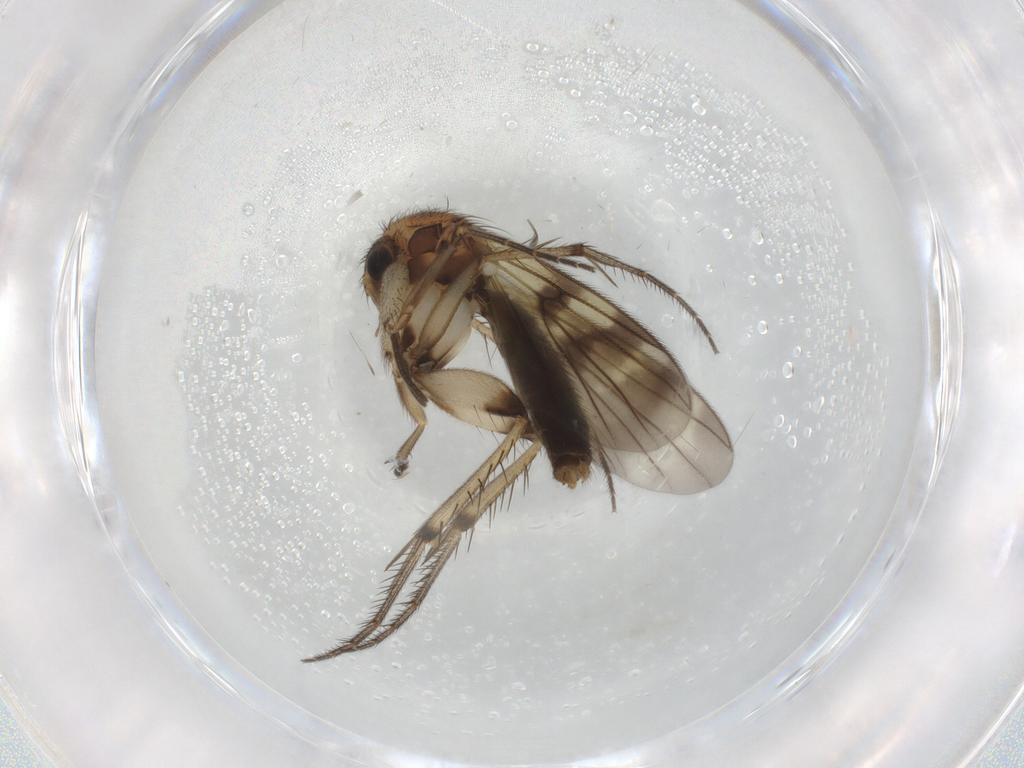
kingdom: Animalia
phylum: Arthropoda
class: Insecta
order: Diptera
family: Mycetophilidae
